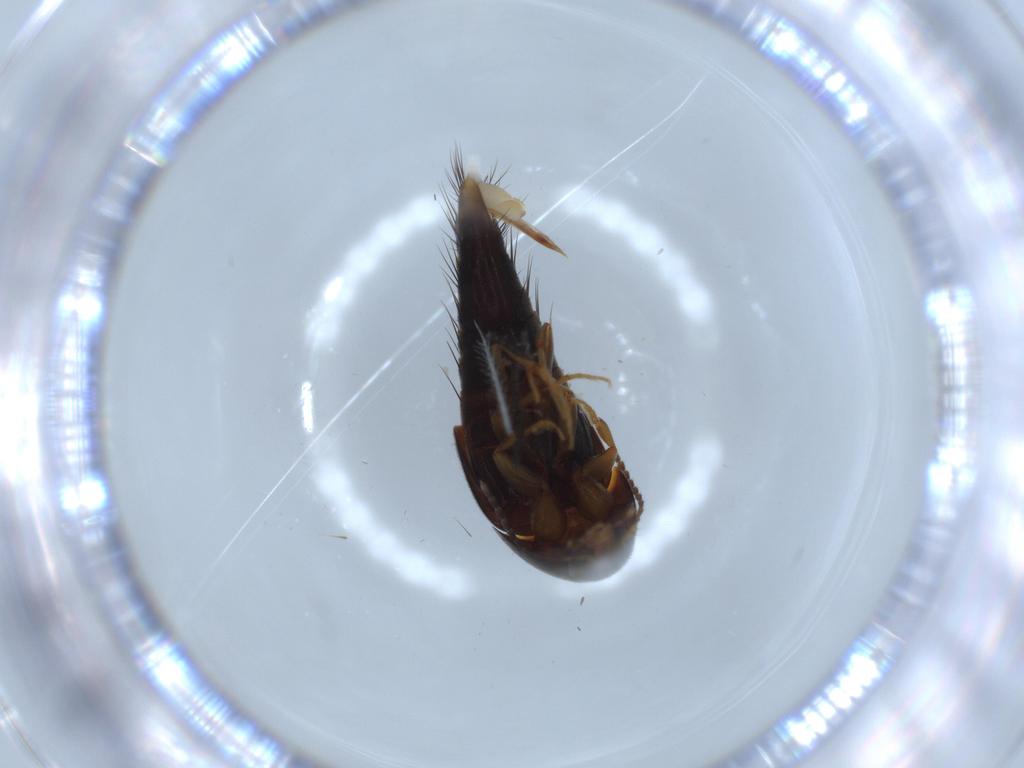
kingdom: Animalia
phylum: Arthropoda
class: Insecta
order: Coleoptera
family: Staphylinidae
